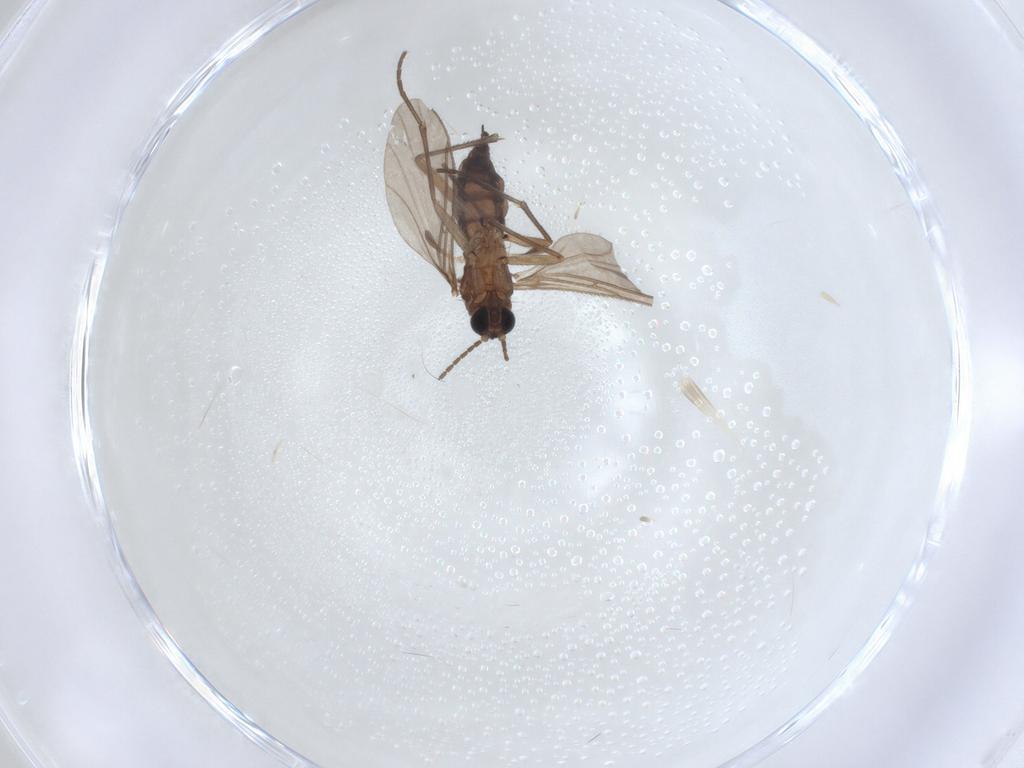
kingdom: Animalia
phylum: Arthropoda
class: Insecta
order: Diptera
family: Sciaridae
